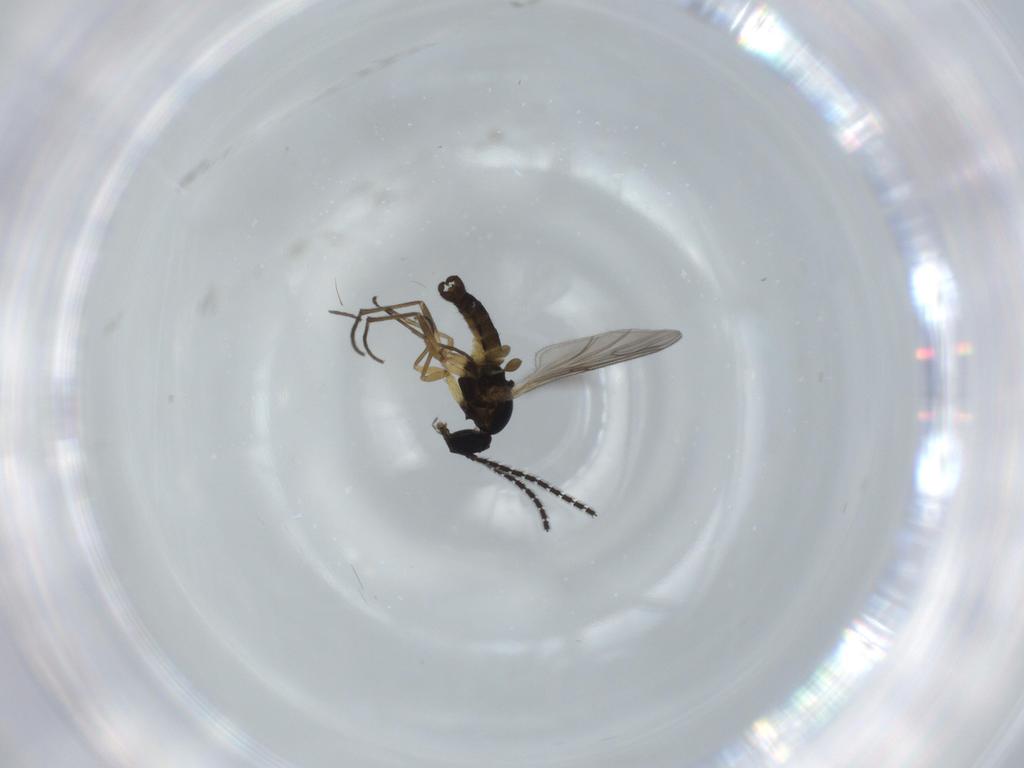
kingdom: Animalia
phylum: Arthropoda
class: Insecta
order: Diptera
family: Sciaridae
